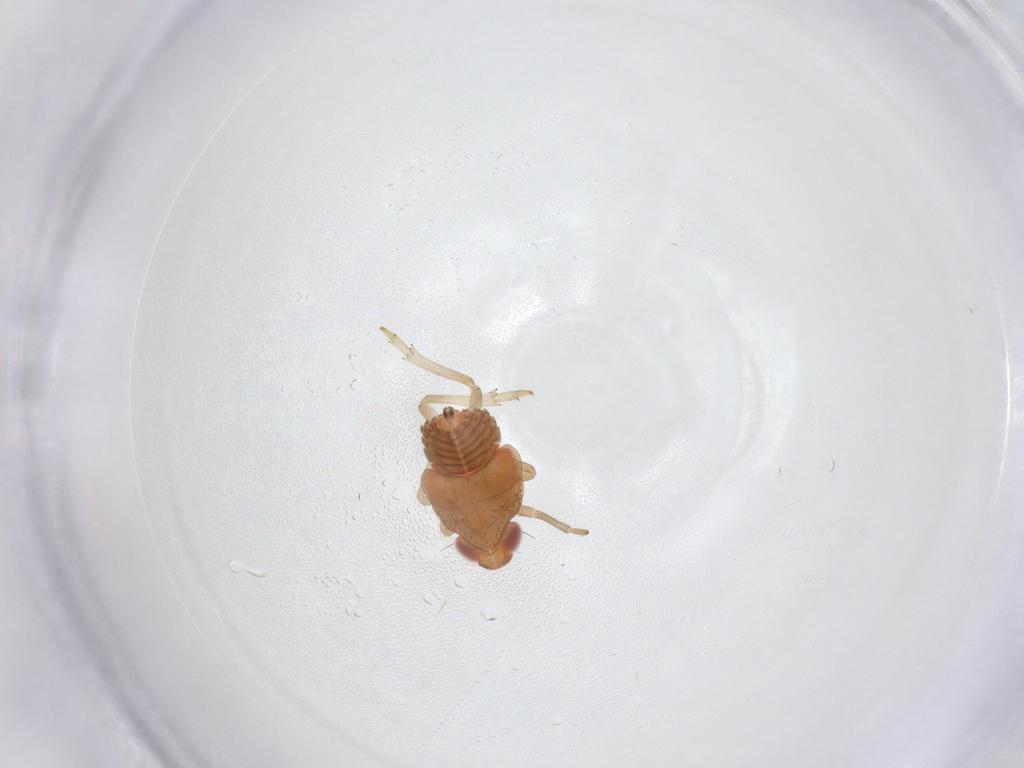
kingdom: Animalia
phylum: Arthropoda
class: Insecta
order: Hemiptera
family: Fulgoroidea_incertae_sedis
